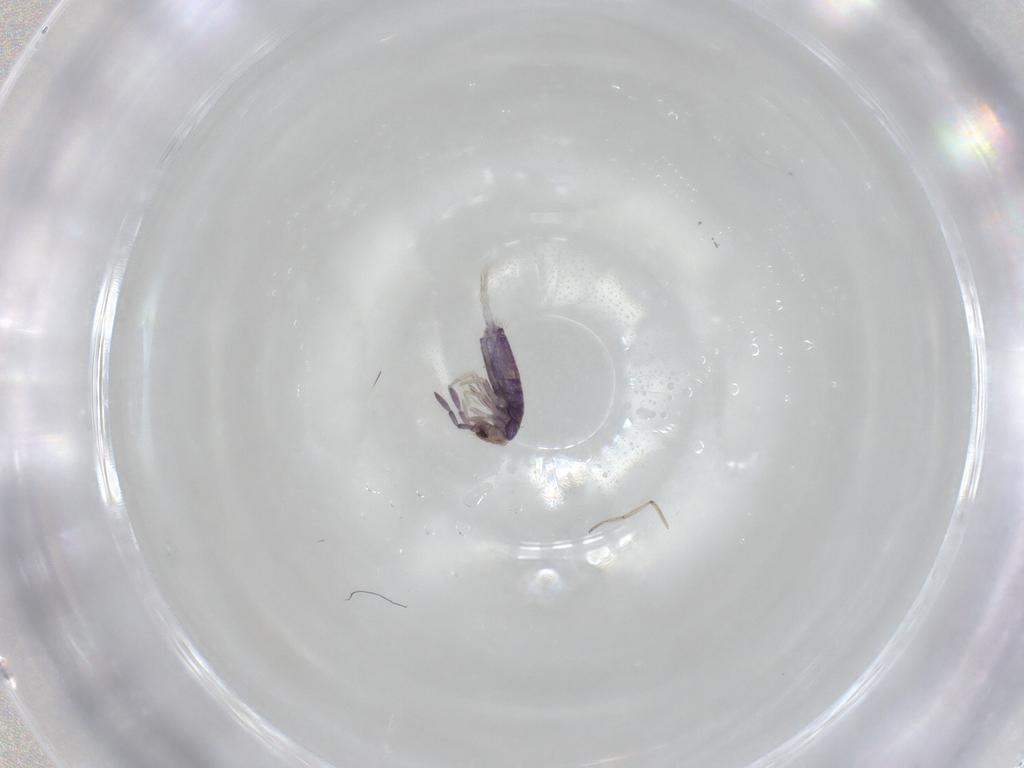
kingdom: Animalia
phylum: Arthropoda
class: Collembola
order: Entomobryomorpha
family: Entomobryidae
